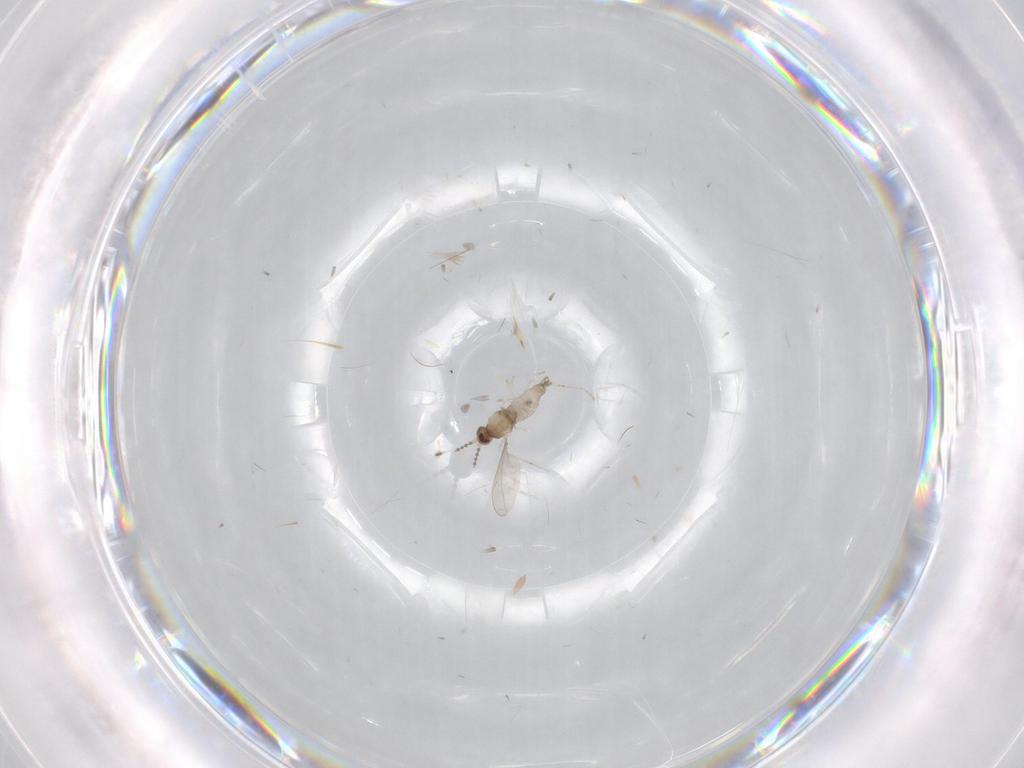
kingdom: Animalia
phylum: Arthropoda
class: Insecta
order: Diptera
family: Cecidomyiidae
